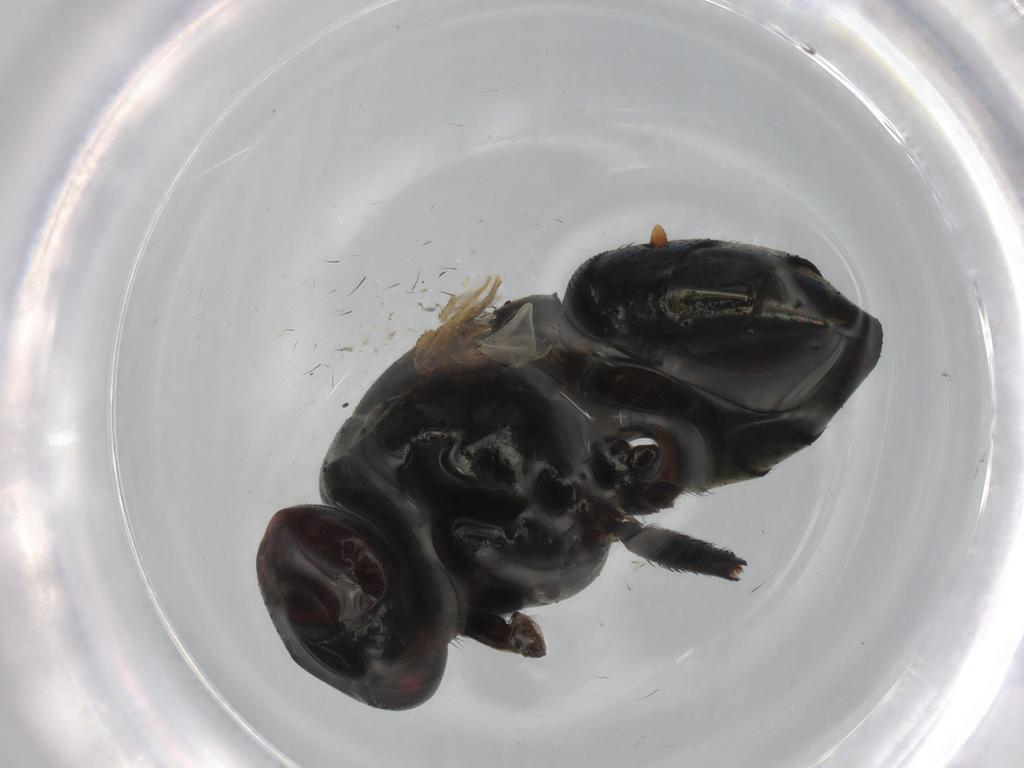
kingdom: Animalia
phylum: Arthropoda
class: Insecta
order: Diptera
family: Sciaridae
